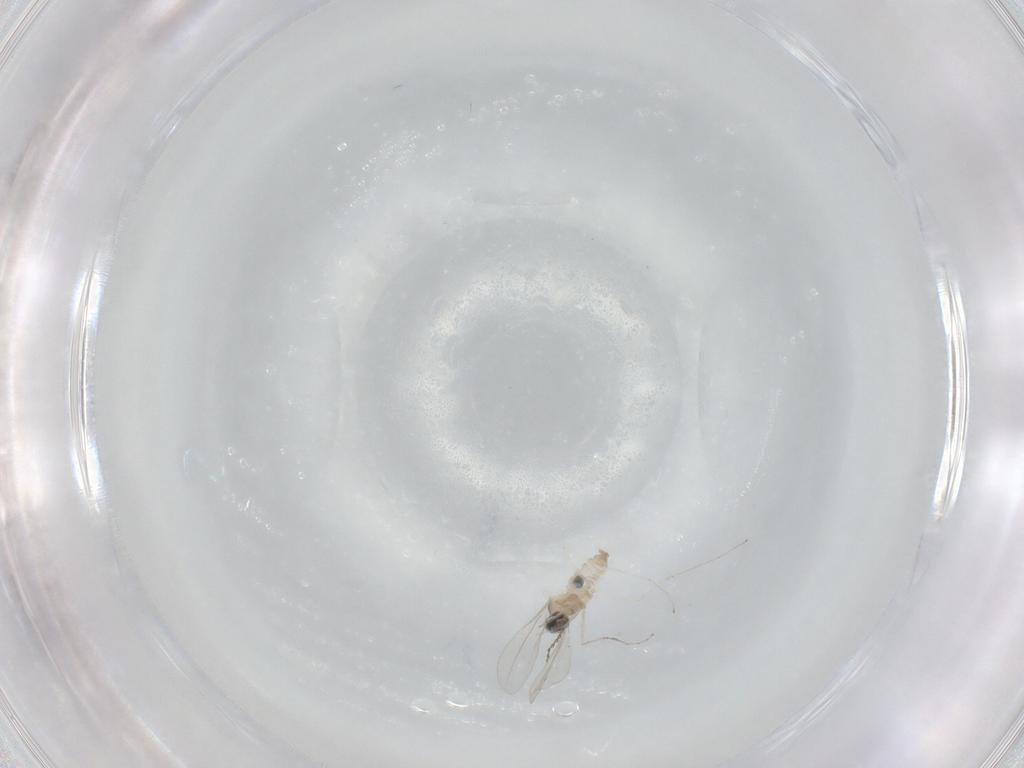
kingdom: Animalia
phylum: Arthropoda
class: Insecta
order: Diptera
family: Cecidomyiidae
